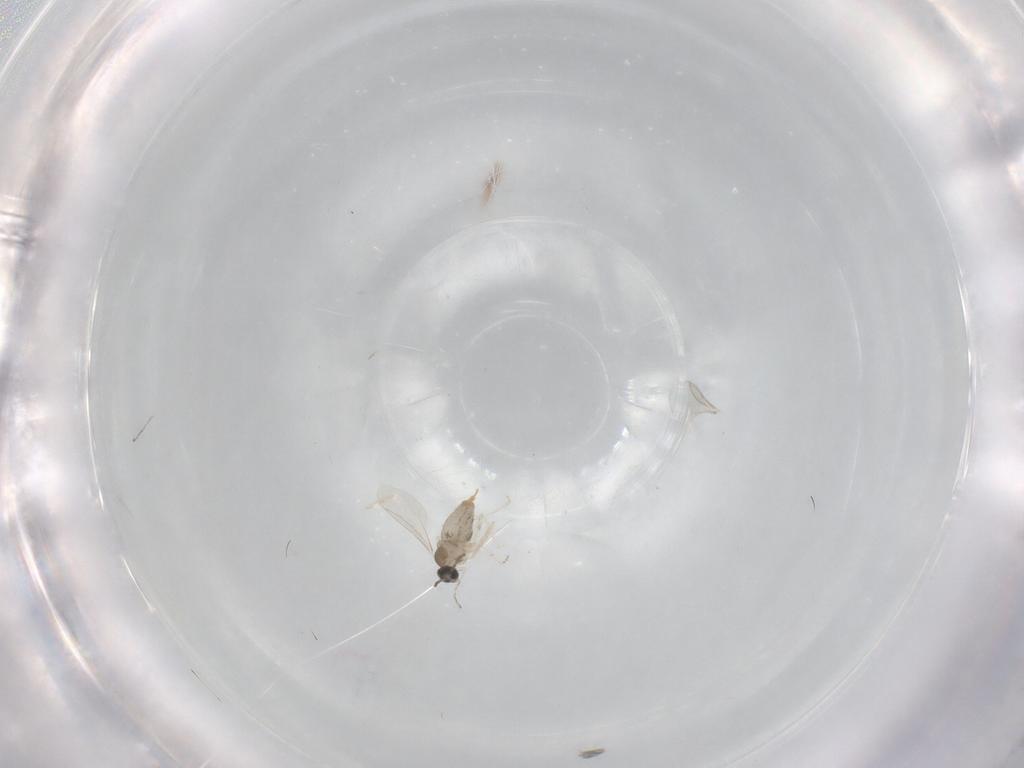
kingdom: Animalia
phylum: Arthropoda
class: Insecta
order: Diptera
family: Cecidomyiidae
